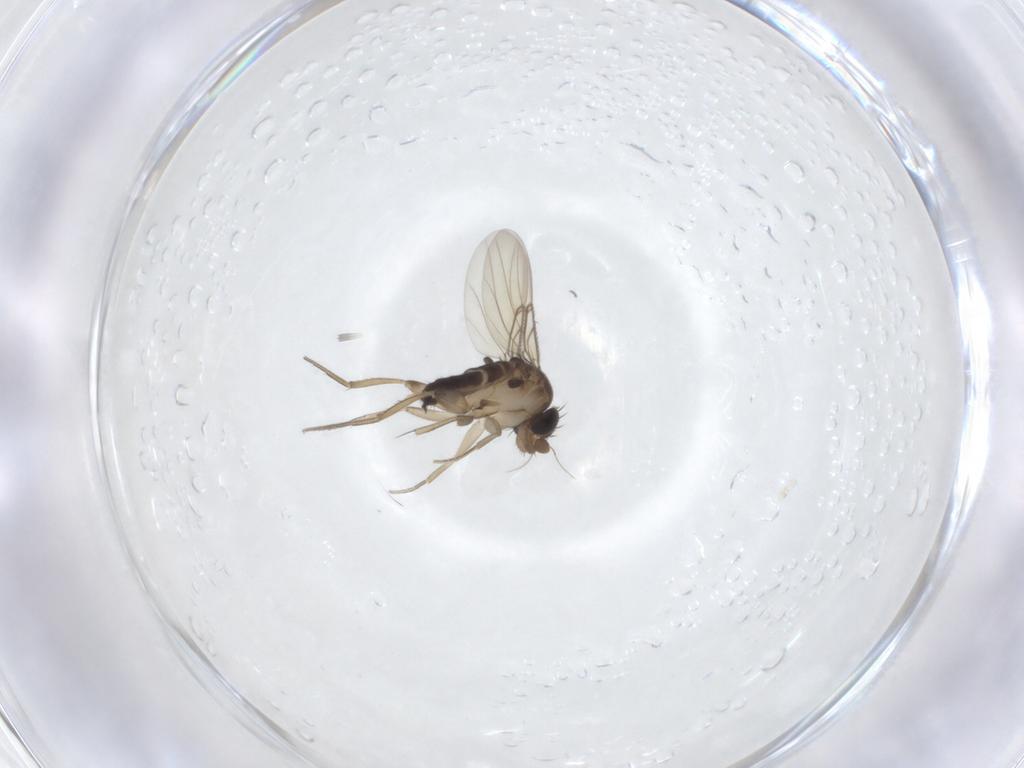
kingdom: Animalia
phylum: Arthropoda
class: Insecta
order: Diptera
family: Phoridae
